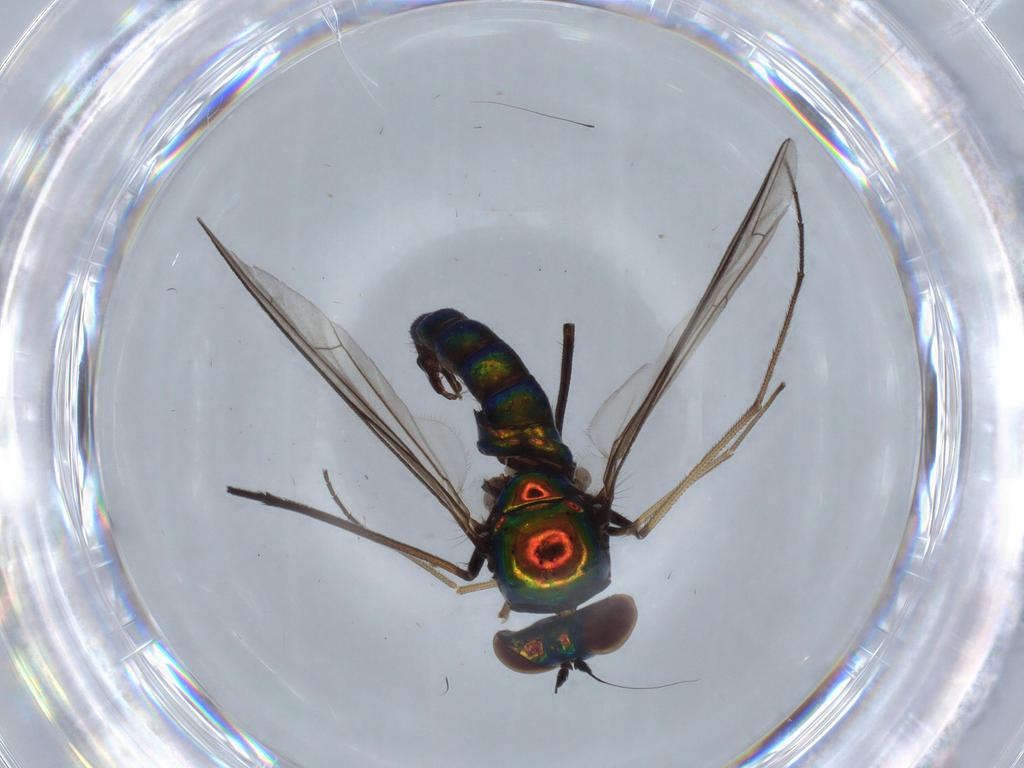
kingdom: Animalia
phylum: Arthropoda
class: Insecta
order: Diptera
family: Dolichopodidae
